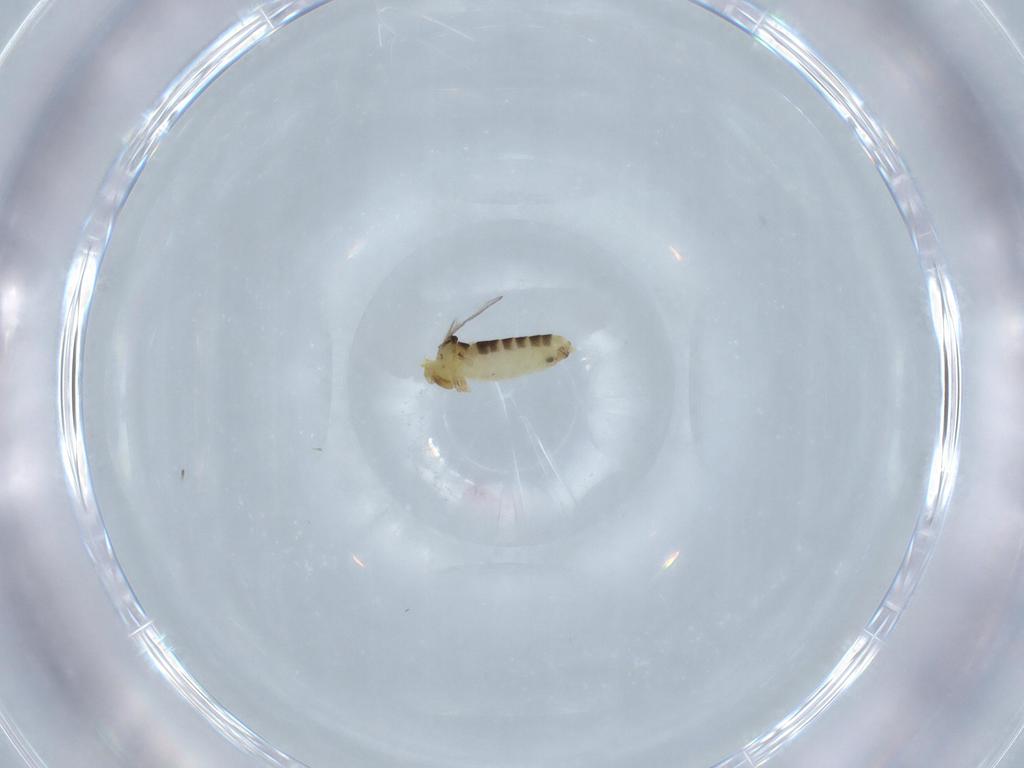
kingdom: Animalia
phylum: Arthropoda
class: Insecta
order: Diptera
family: Chironomidae
